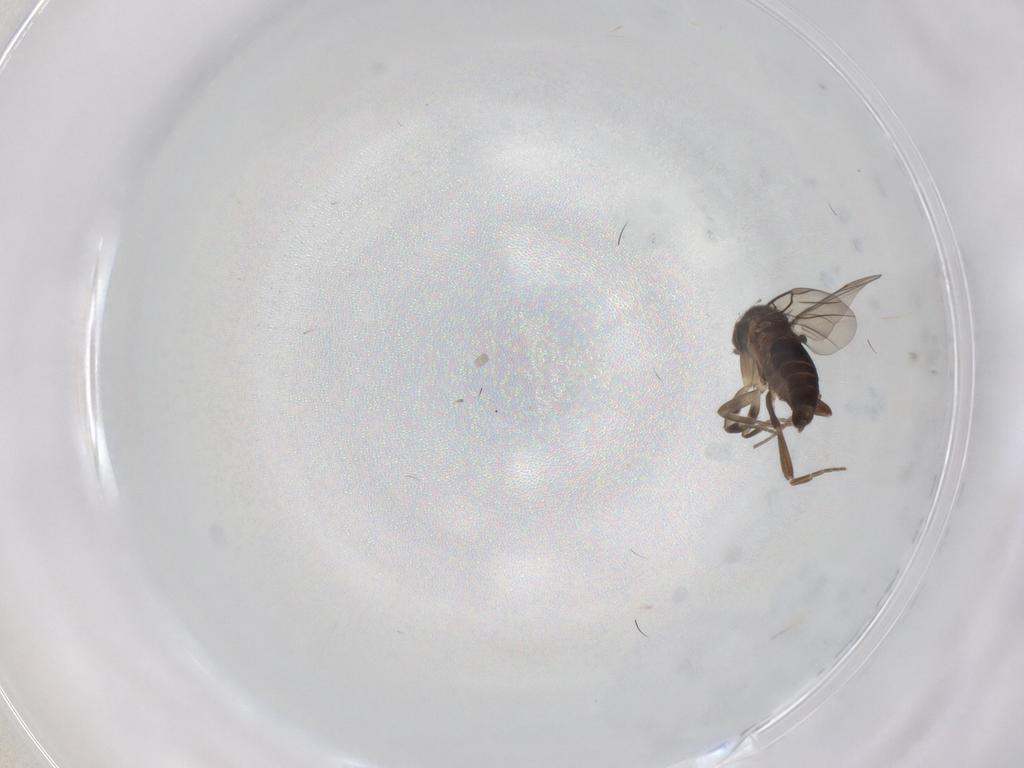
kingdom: Animalia
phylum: Arthropoda
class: Insecta
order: Diptera
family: Phoridae
